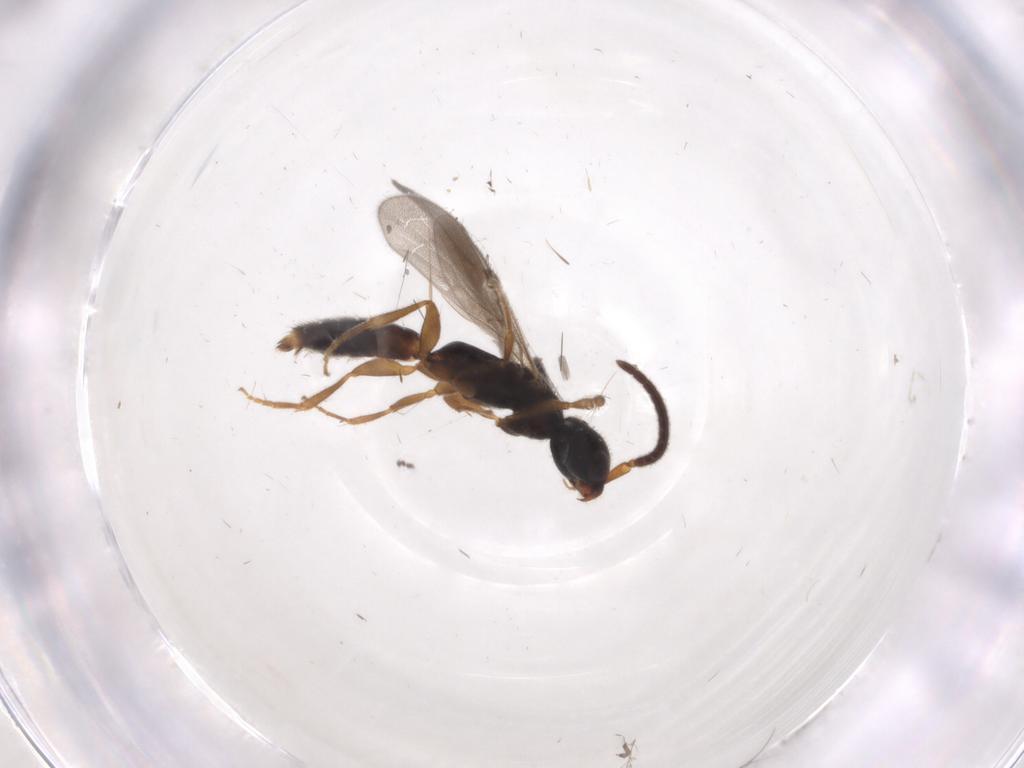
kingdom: Animalia
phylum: Arthropoda
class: Insecta
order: Hymenoptera
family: Bethylidae
